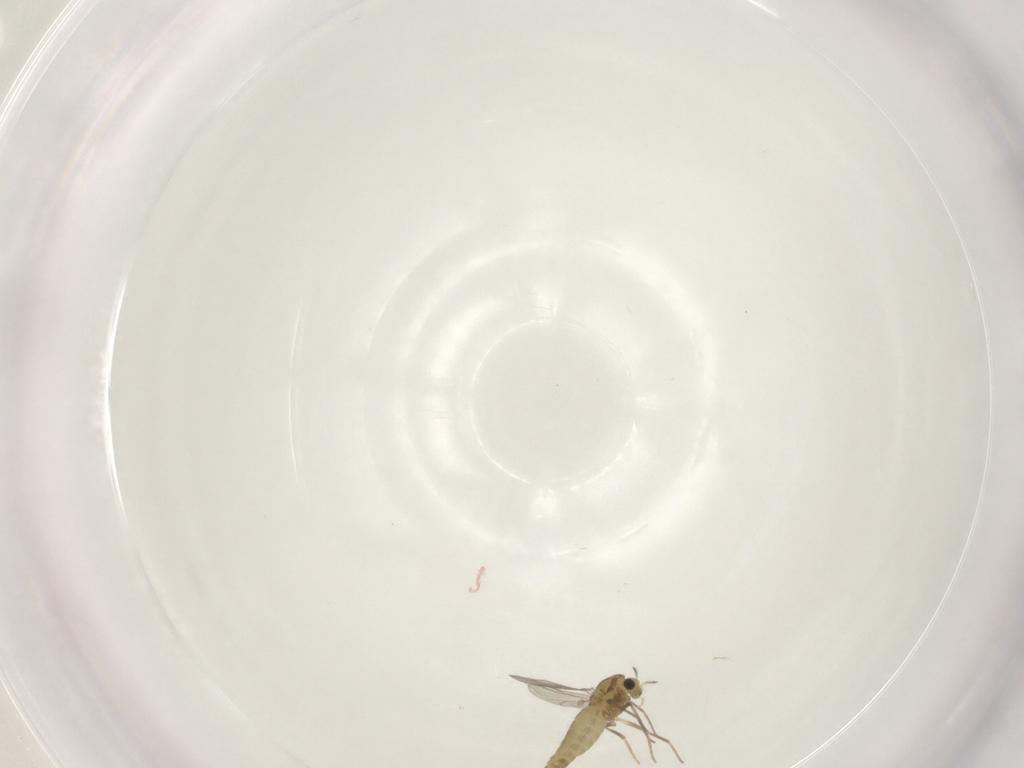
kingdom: Animalia
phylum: Arthropoda
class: Insecta
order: Diptera
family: Chironomidae
